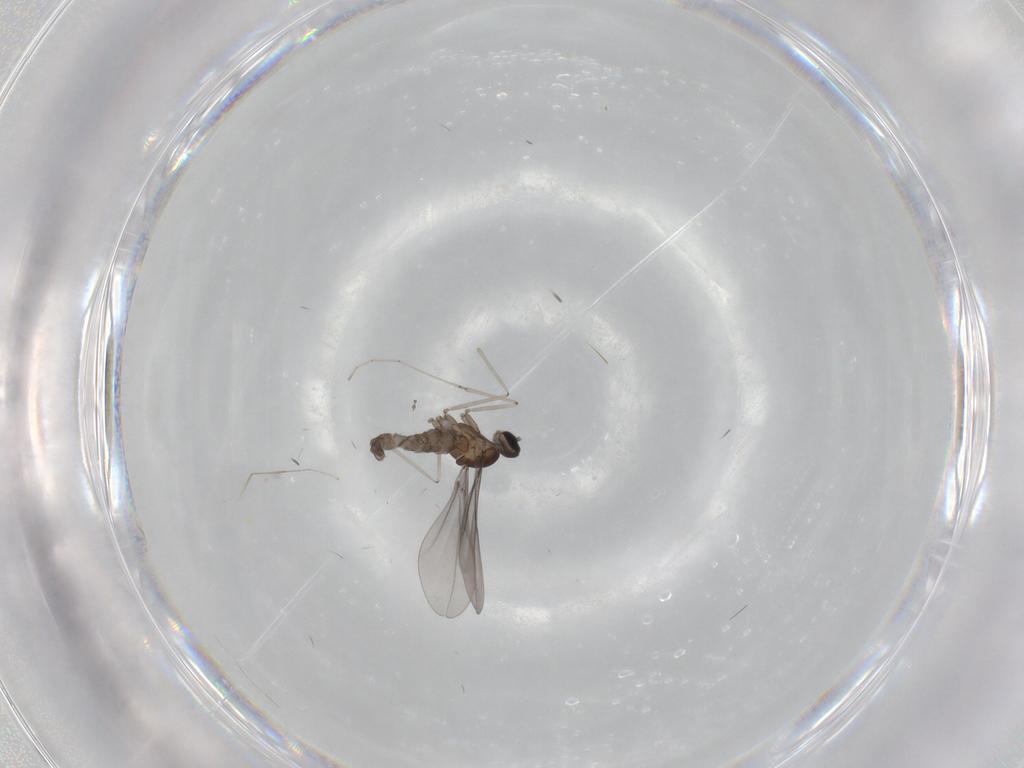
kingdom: Animalia
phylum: Arthropoda
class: Insecta
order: Diptera
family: Cecidomyiidae
